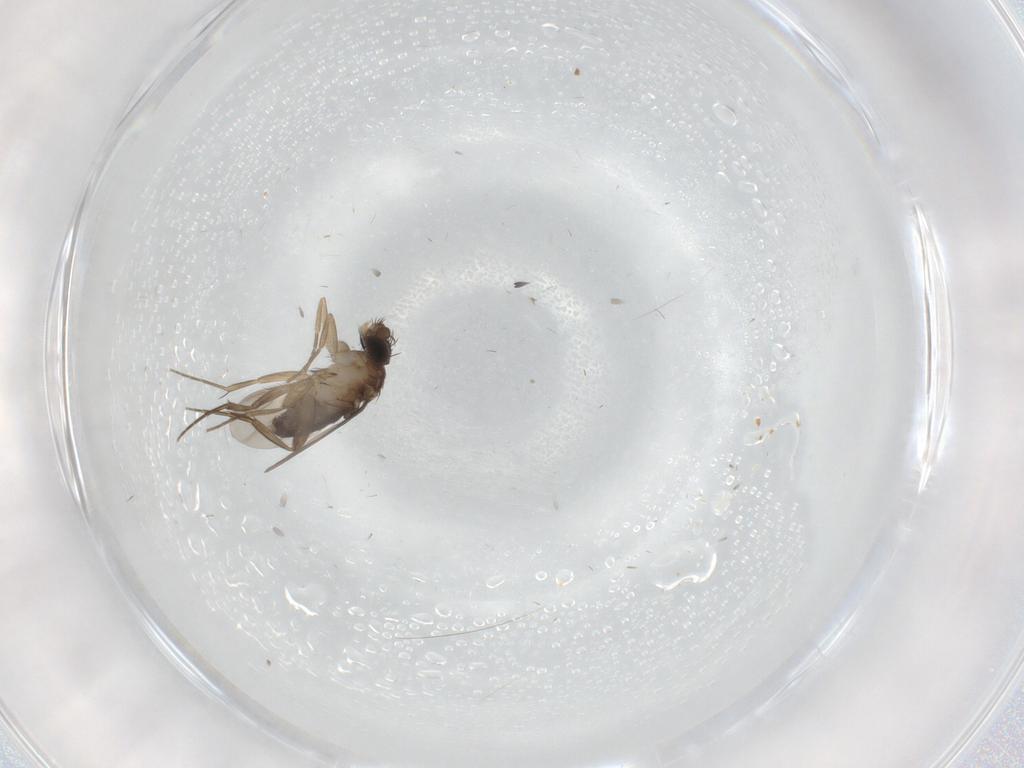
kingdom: Animalia
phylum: Arthropoda
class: Insecta
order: Diptera
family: Phoridae
